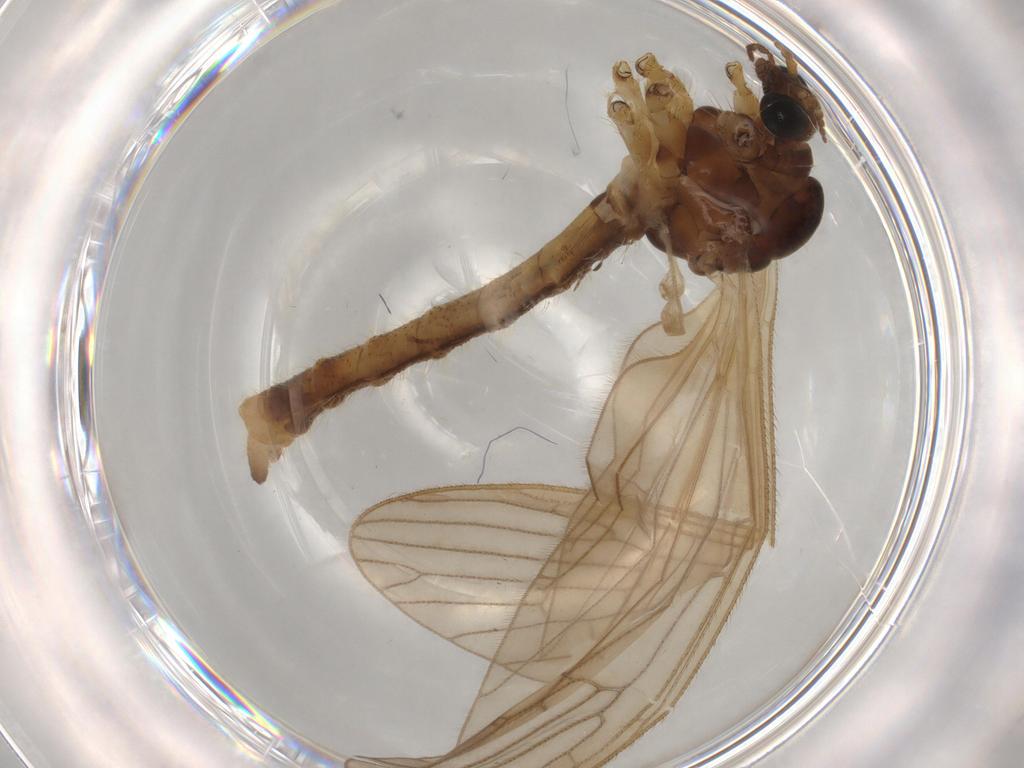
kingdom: Animalia
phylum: Arthropoda
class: Insecta
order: Diptera
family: Limoniidae
